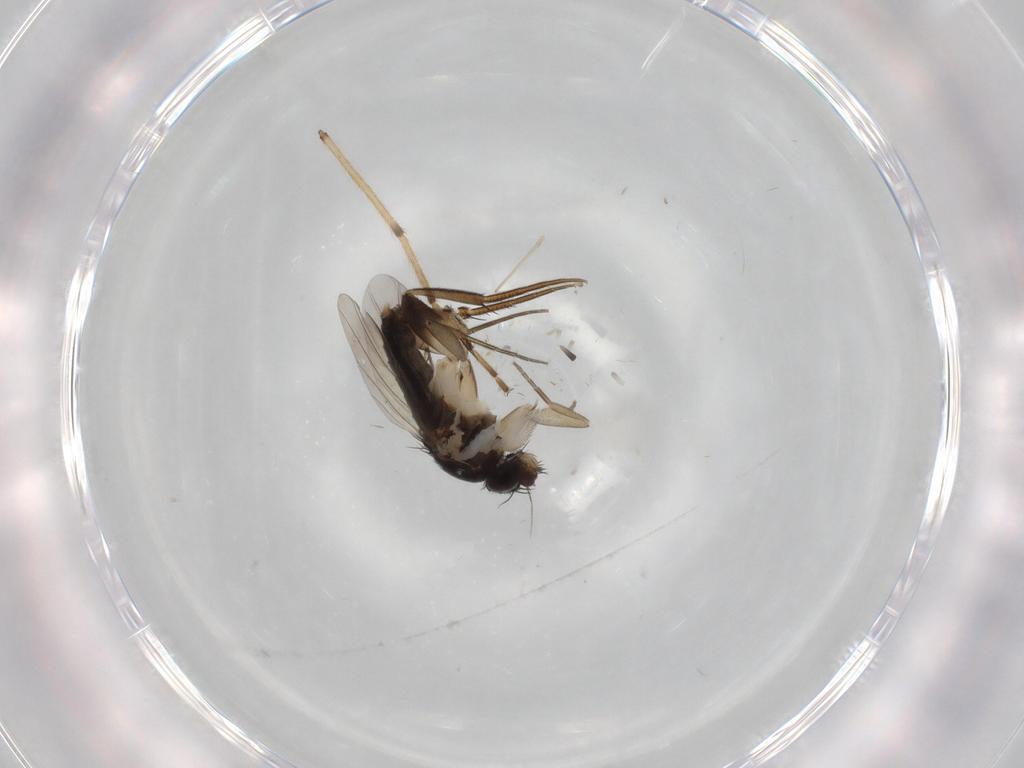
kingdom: Animalia
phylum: Arthropoda
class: Insecta
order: Diptera
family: Phoridae
